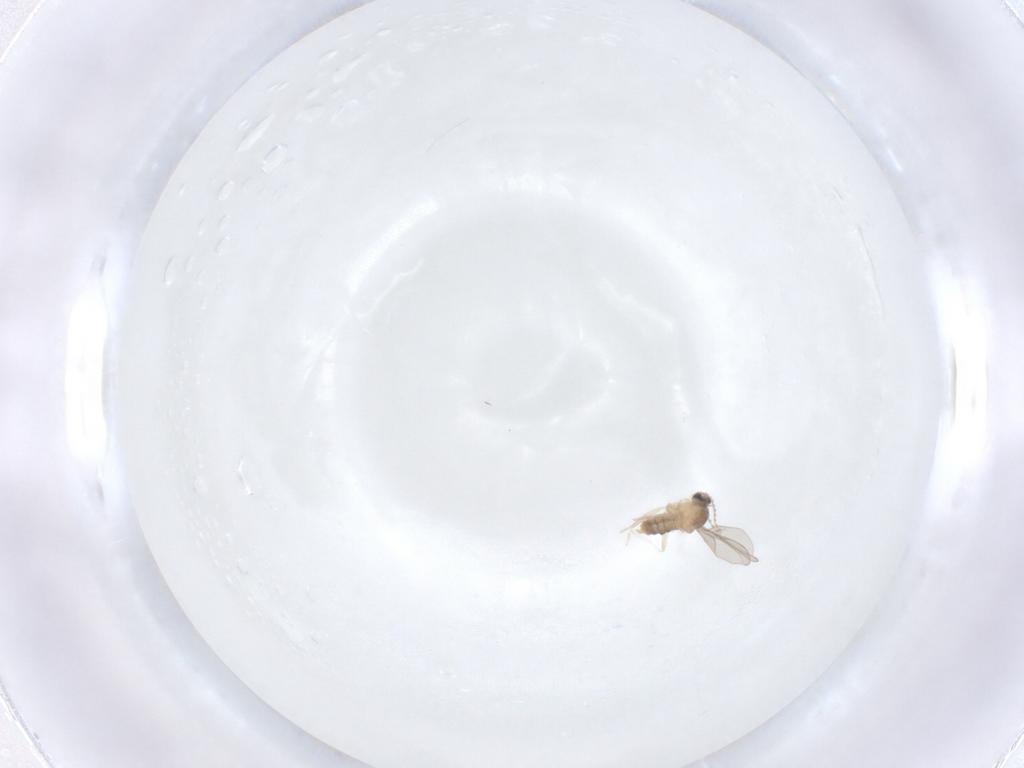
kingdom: Animalia
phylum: Arthropoda
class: Insecta
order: Diptera
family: Cecidomyiidae
